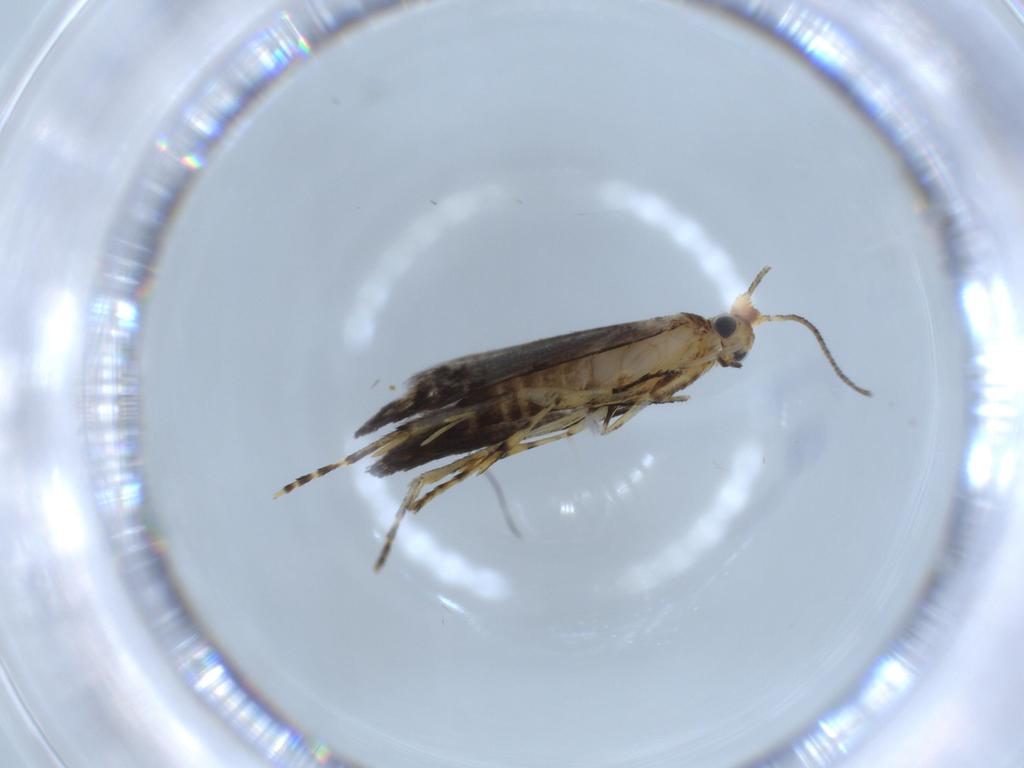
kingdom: Animalia
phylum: Arthropoda
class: Insecta
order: Lepidoptera
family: Argyresthiidae
